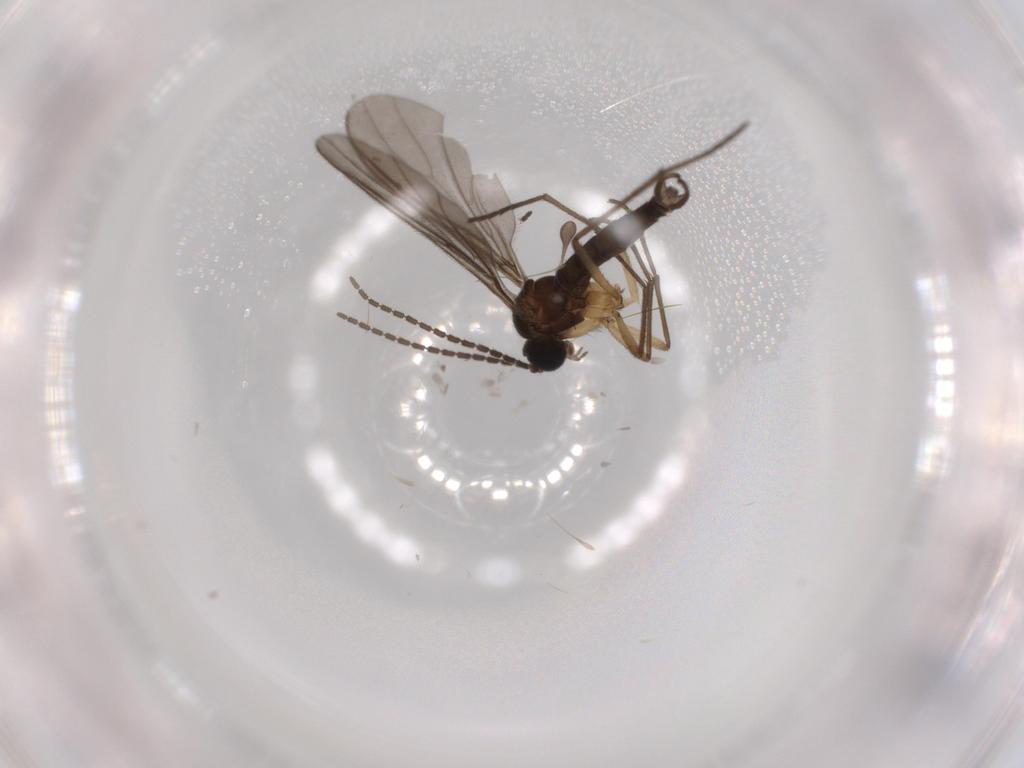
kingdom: Animalia
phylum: Arthropoda
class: Insecta
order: Diptera
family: Sciaridae
